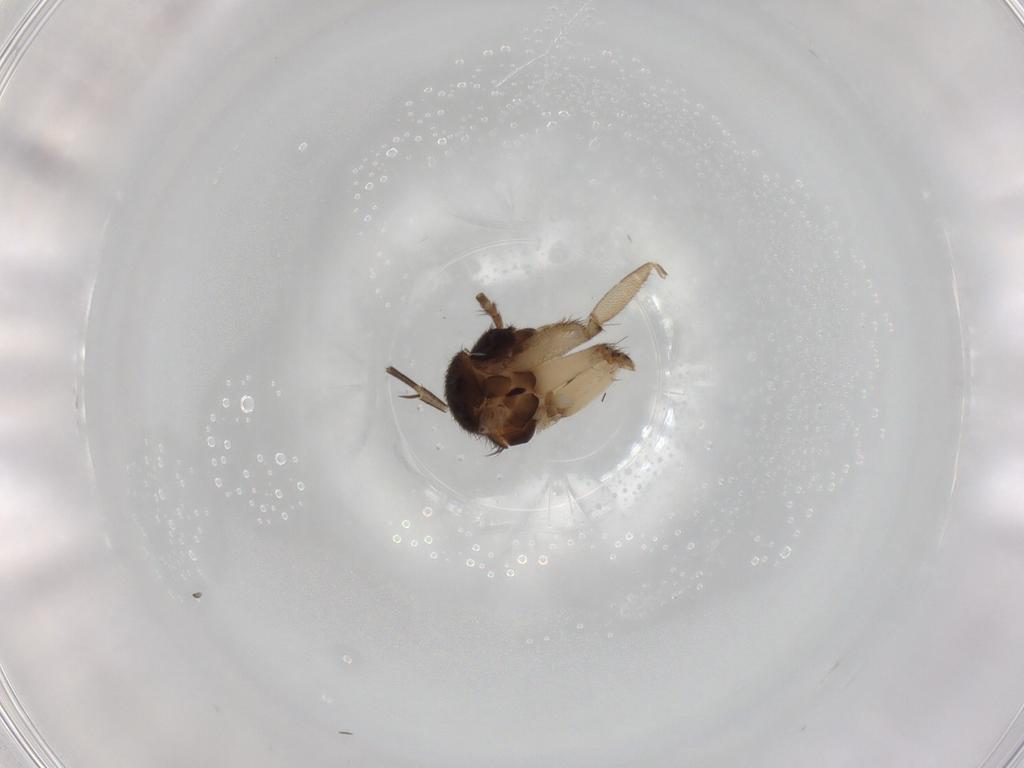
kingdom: Animalia
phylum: Arthropoda
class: Insecta
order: Diptera
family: Mycetophilidae
